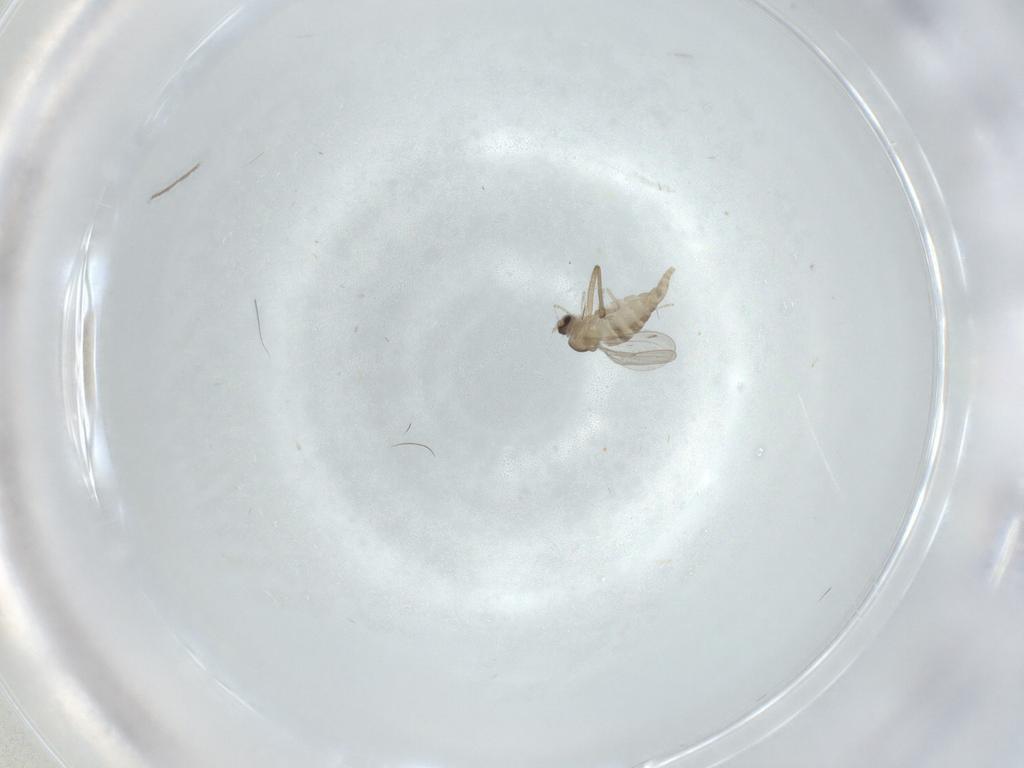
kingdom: Animalia
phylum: Arthropoda
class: Insecta
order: Diptera
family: Cecidomyiidae
